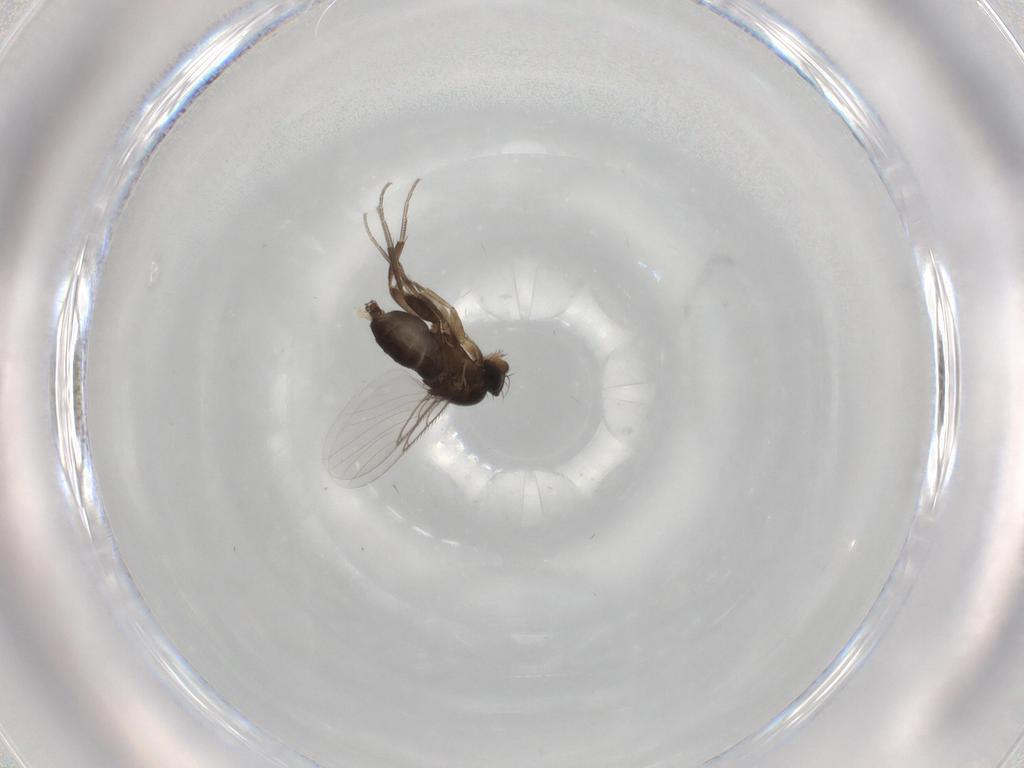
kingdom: Animalia
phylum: Arthropoda
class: Insecta
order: Diptera
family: Phoridae
